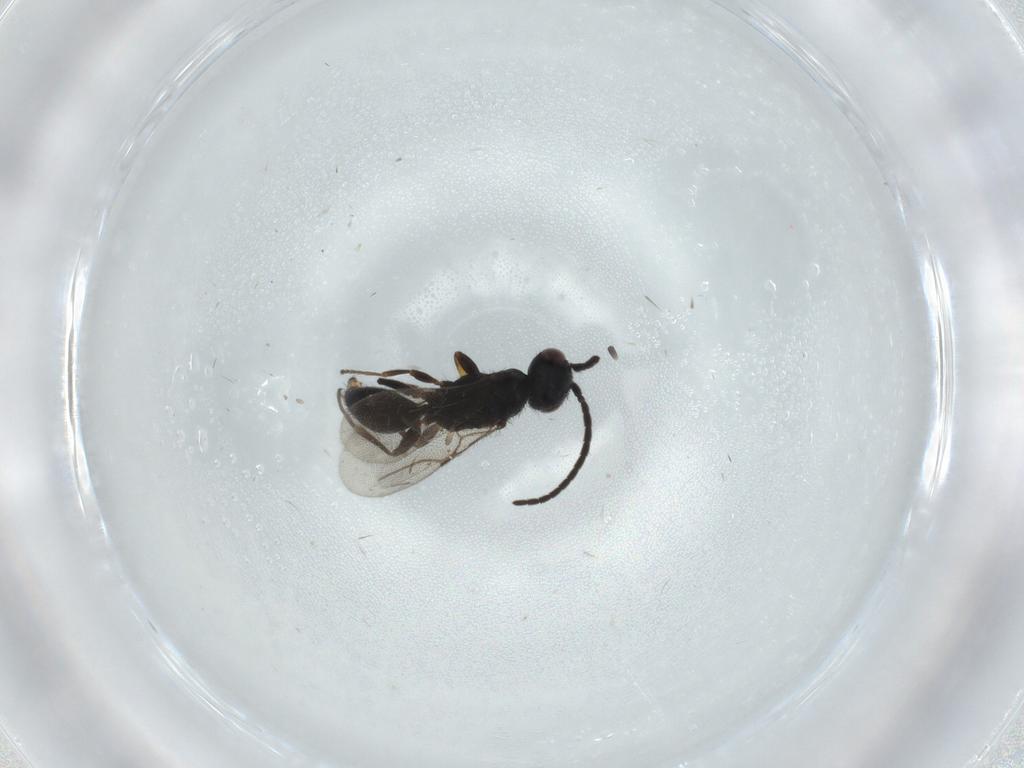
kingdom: Animalia
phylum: Arthropoda
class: Insecta
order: Hymenoptera
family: Bethylidae
